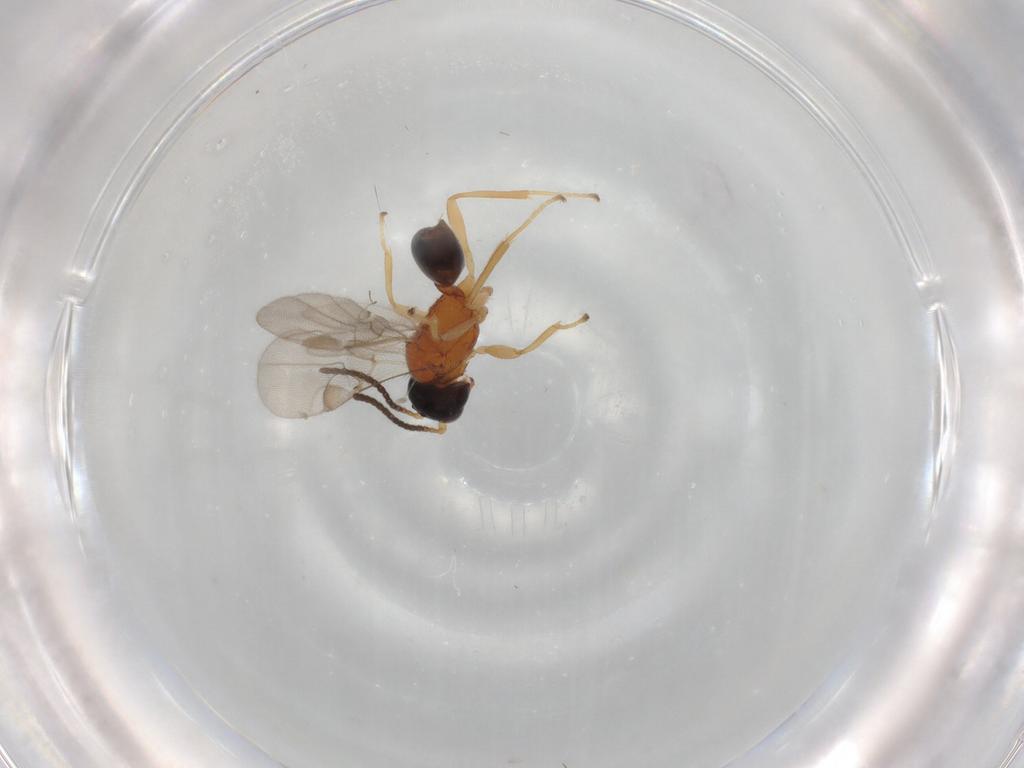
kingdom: Animalia
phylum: Arthropoda
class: Insecta
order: Hymenoptera
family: Braconidae
